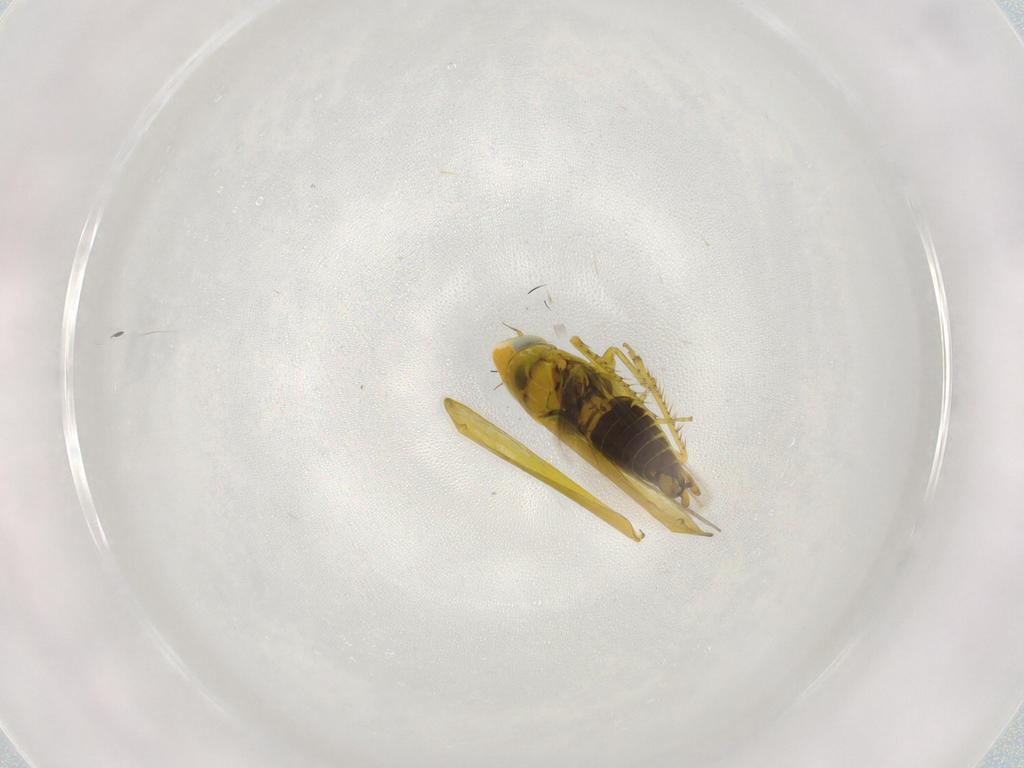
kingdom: Animalia
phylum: Arthropoda
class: Insecta
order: Hemiptera
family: Cicadellidae
